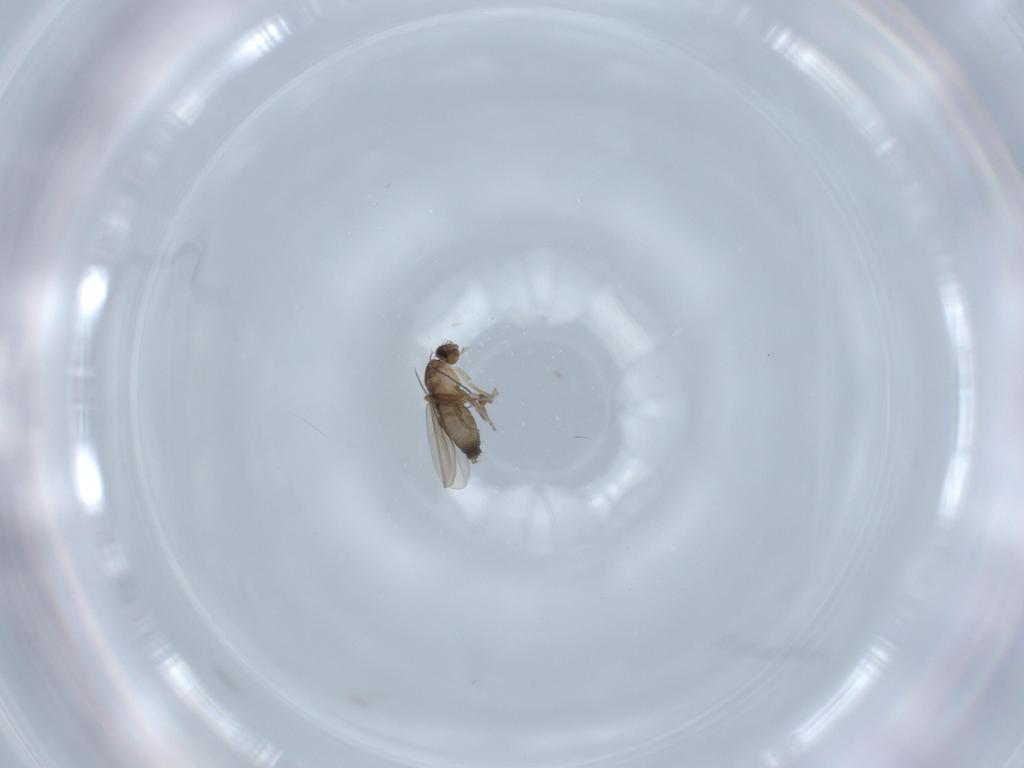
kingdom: Animalia
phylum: Arthropoda
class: Insecta
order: Diptera
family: Phoridae
